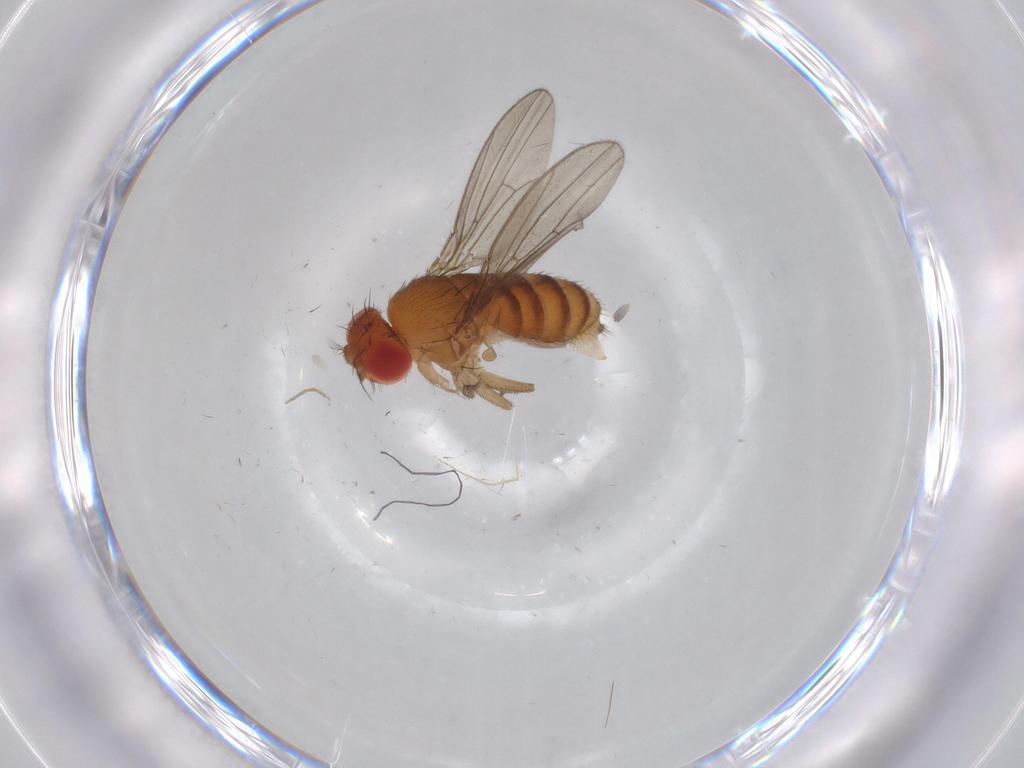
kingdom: Animalia
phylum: Arthropoda
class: Insecta
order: Diptera
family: Drosophilidae
